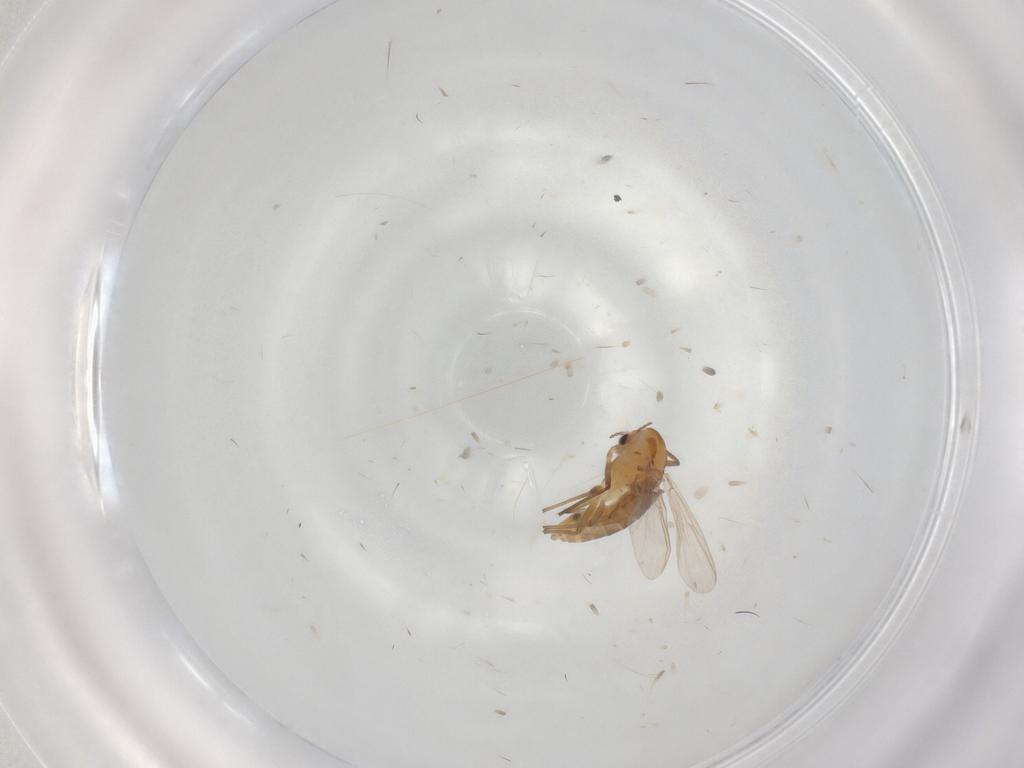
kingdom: Animalia
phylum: Arthropoda
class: Insecta
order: Diptera
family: Chironomidae
